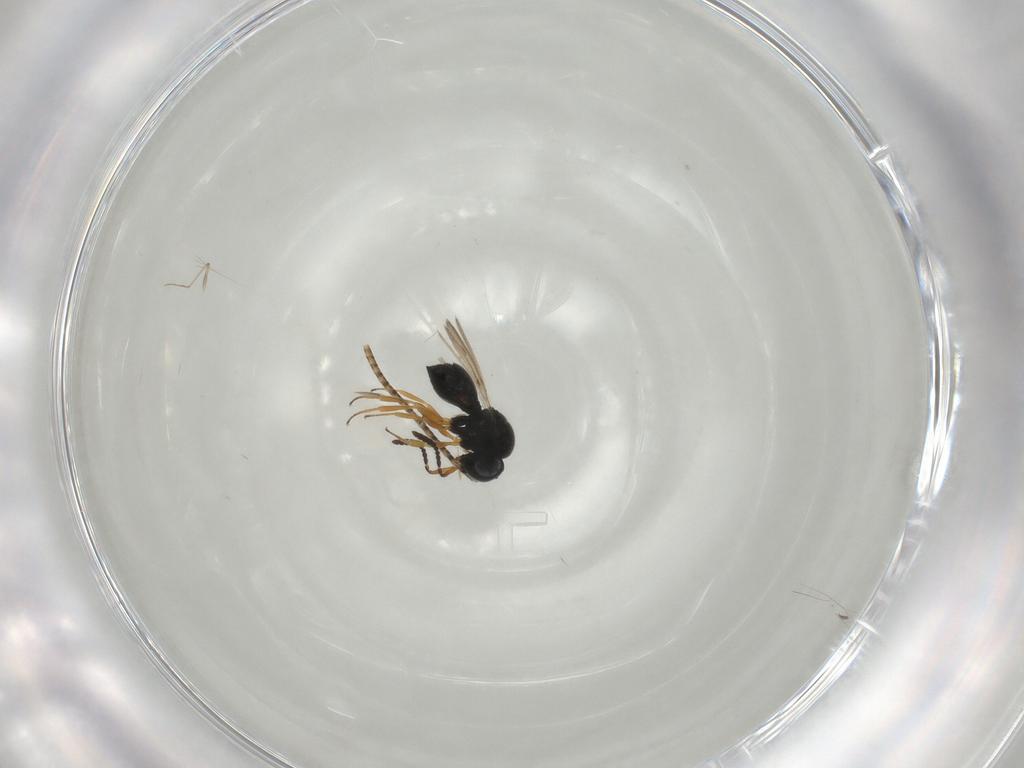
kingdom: Animalia
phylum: Arthropoda
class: Insecta
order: Hymenoptera
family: Scelionidae
